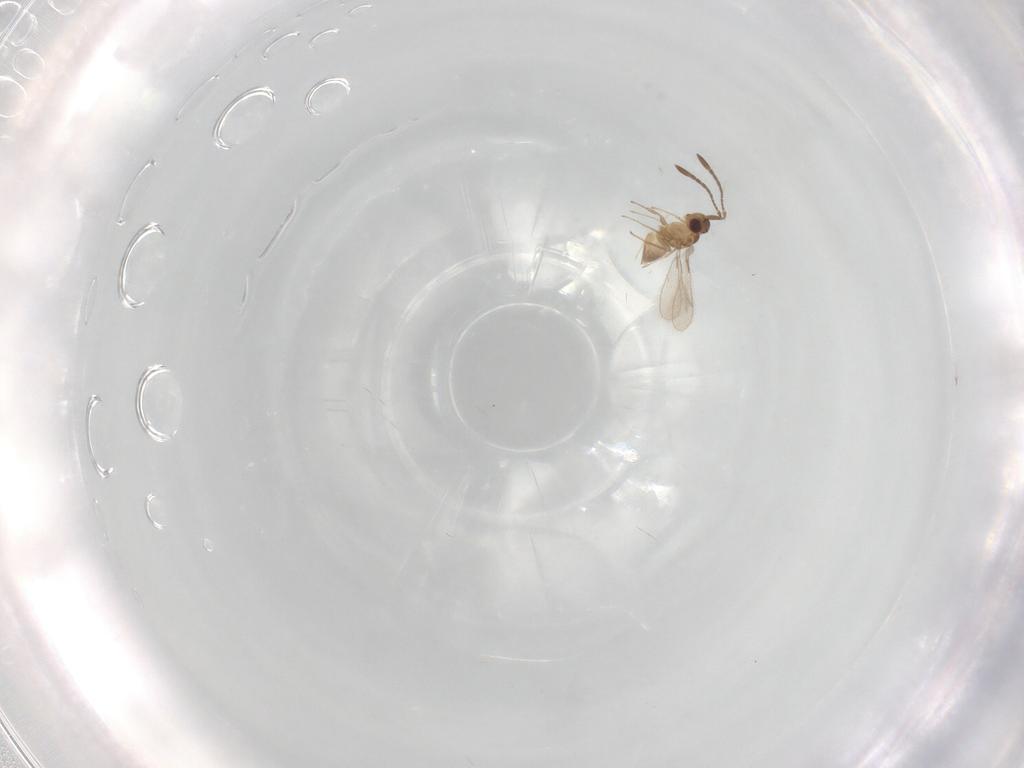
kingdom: Animalia
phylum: Arthropoda
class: Insecta
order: Hymenoptera
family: Mymaridae
